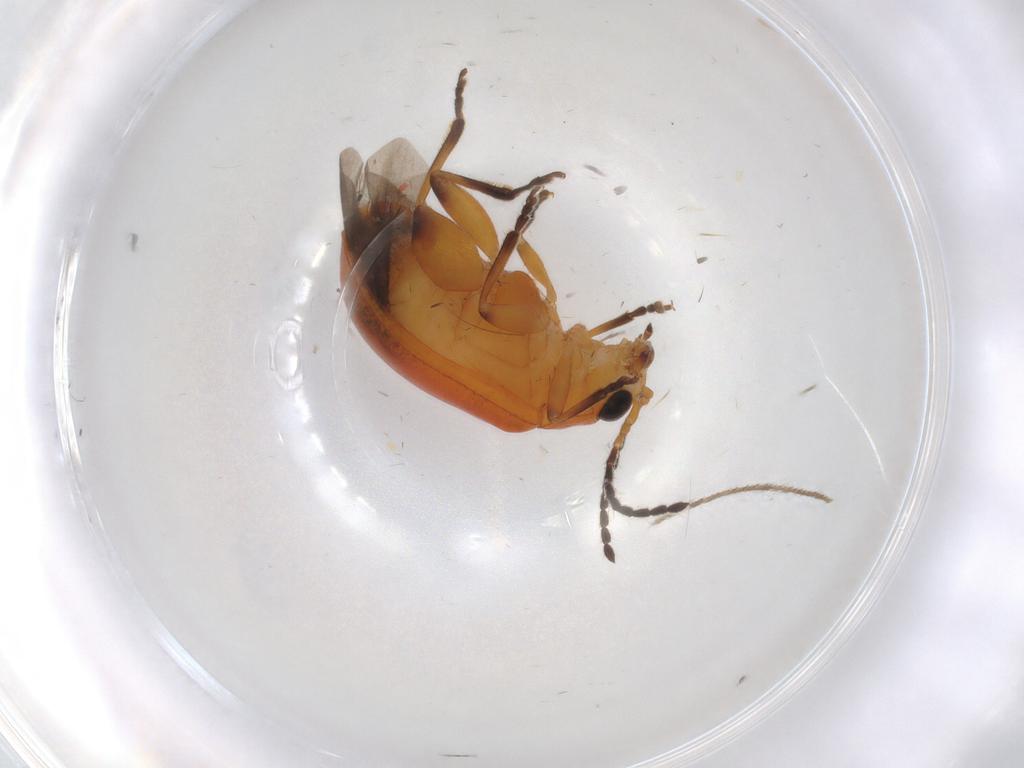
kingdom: Animalia
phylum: Arthropoda
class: Insecta
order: Coleoptera
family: Chrysomelidae
